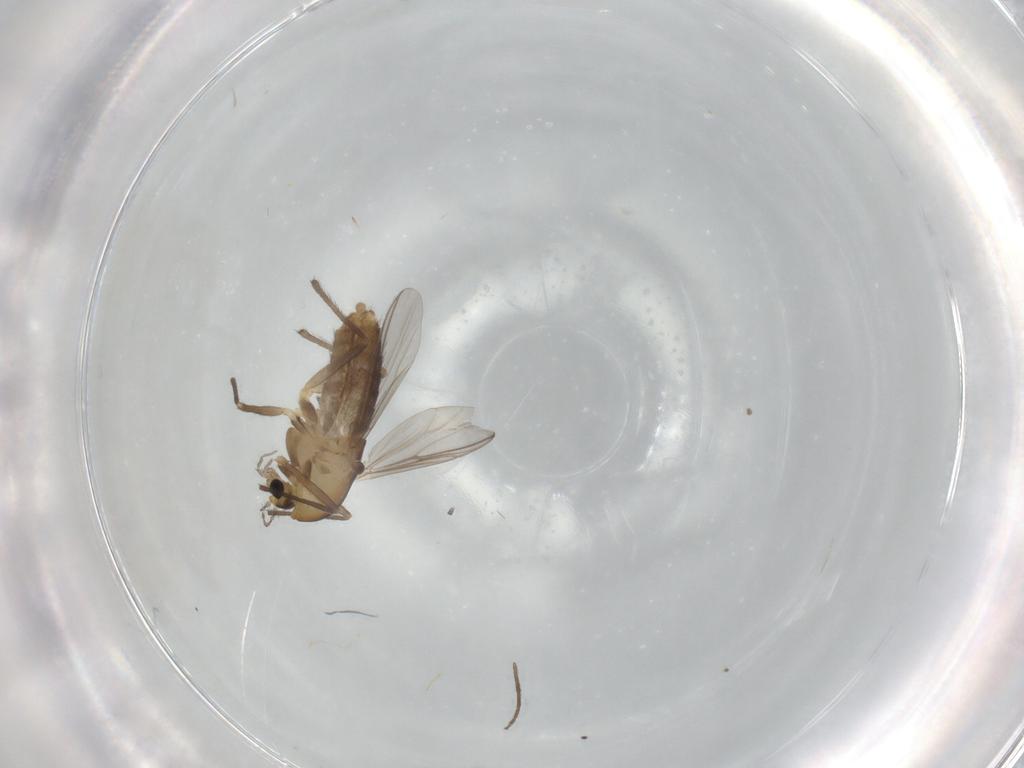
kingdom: Animalia
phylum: Arthropoda
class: Insecta
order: Diptera
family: Chironomidae
